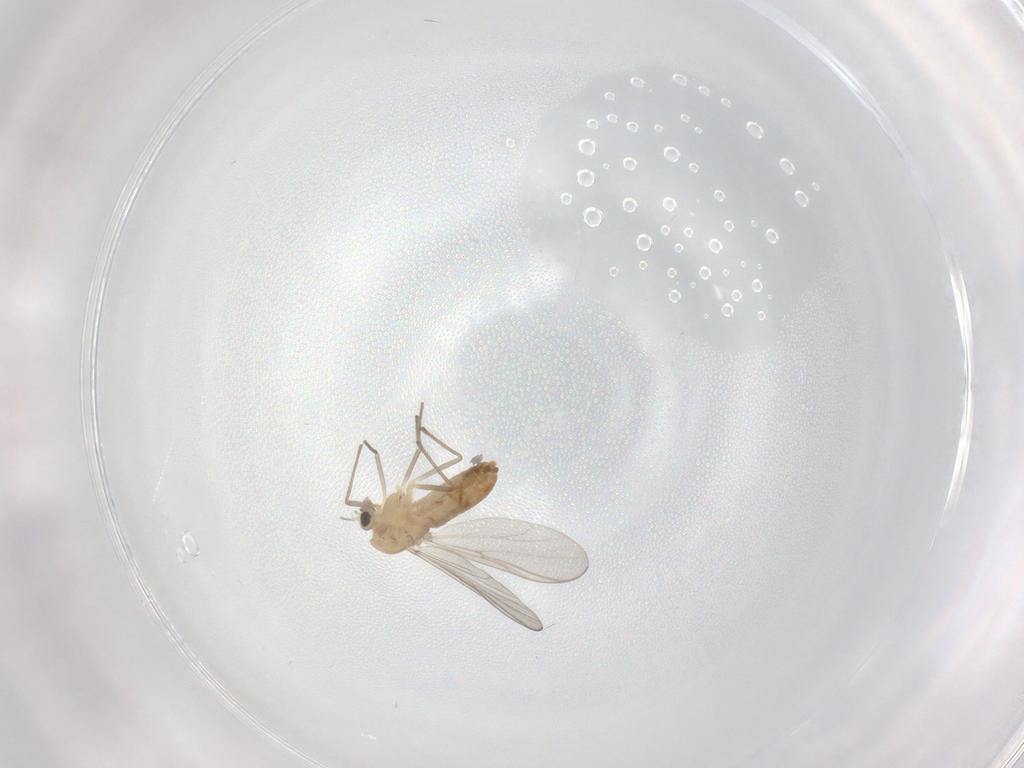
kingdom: Animalia
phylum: Arthropoda
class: Insecta
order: Diptera
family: Chironomidae
